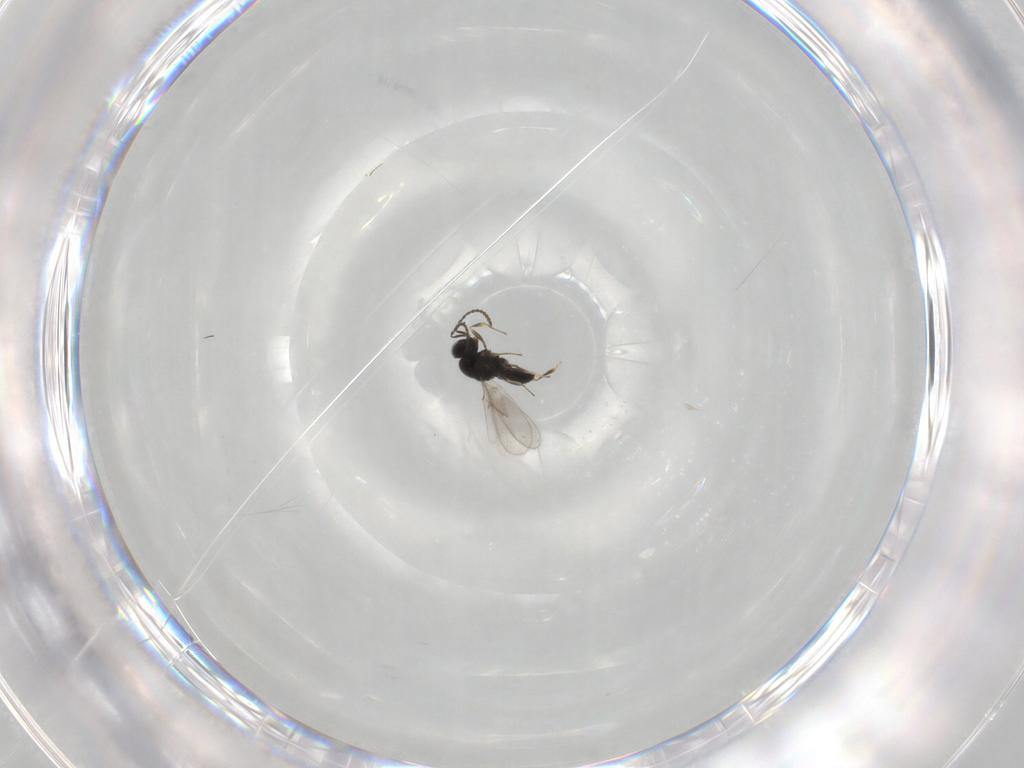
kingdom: Animalia
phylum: Arthropoda
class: Insecta
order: Hymenoptera
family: Scelionidae
